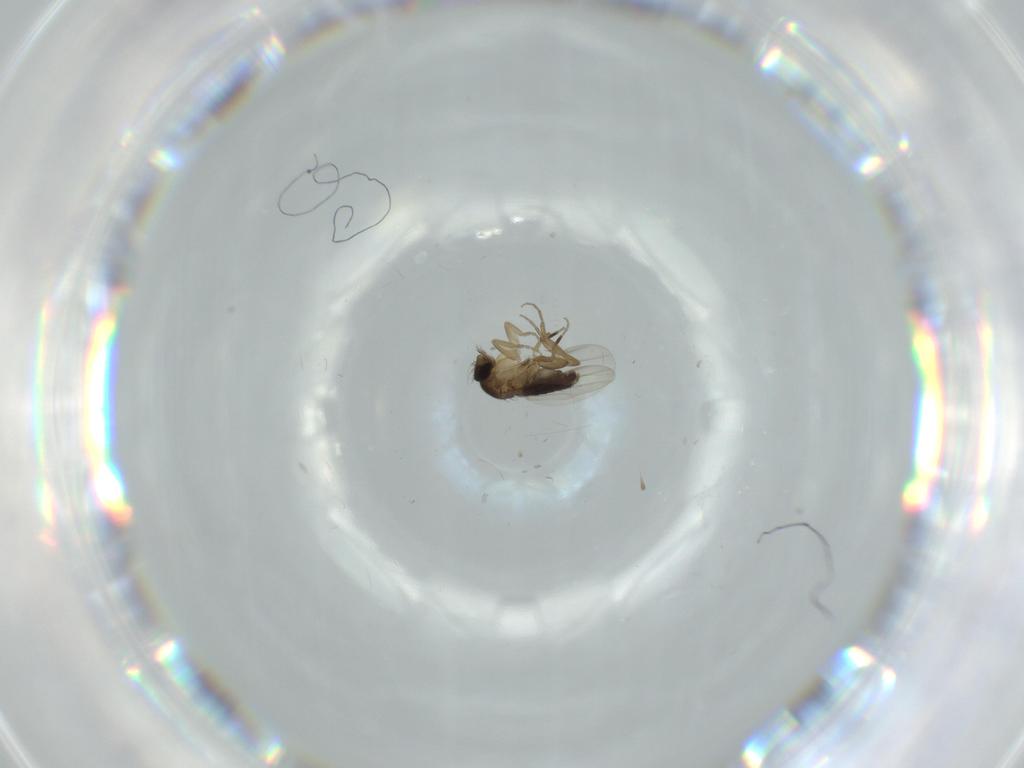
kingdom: Animalia
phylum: Arthropoda
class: Insecta
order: Diptera
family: Phoridae
